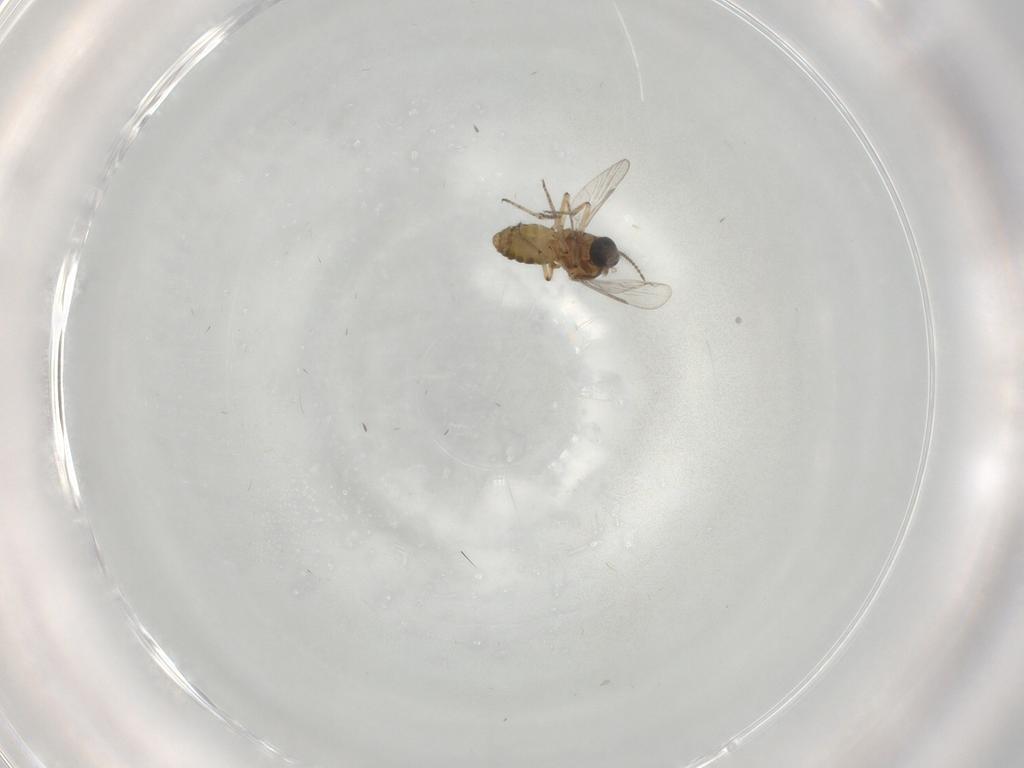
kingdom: Animalia
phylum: Arthropoda
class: Insecta
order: Diptera
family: Ceratopogonidae
